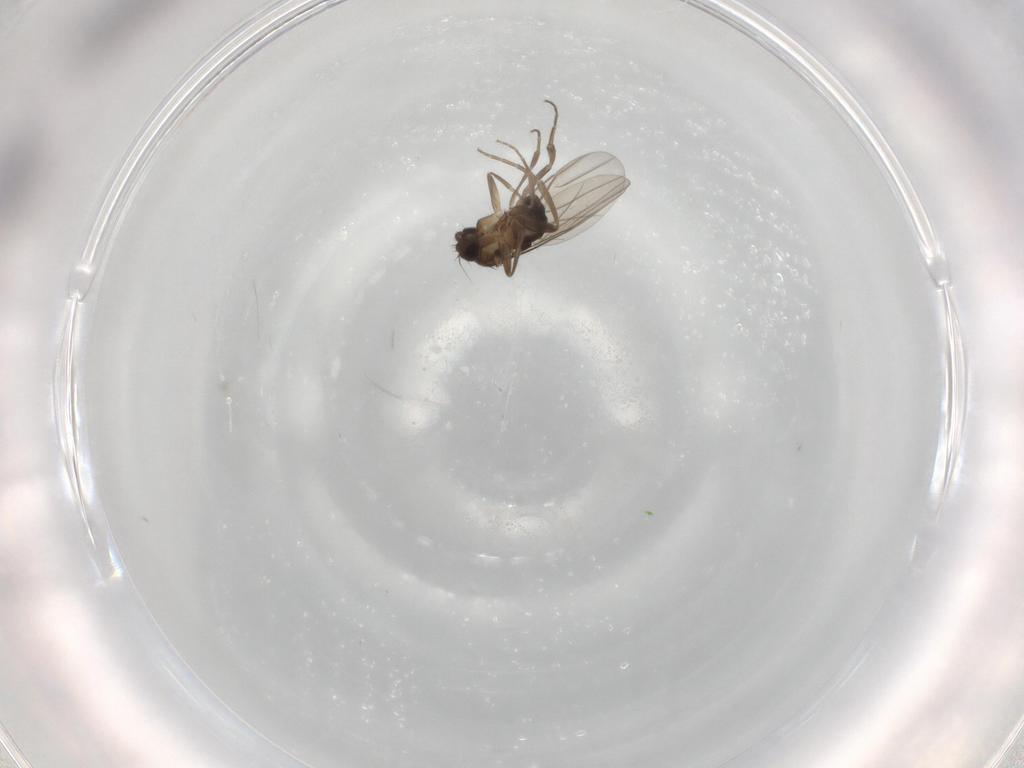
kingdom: Animalia
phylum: Arthropoda
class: Insecta
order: Diptera
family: Phoridae
